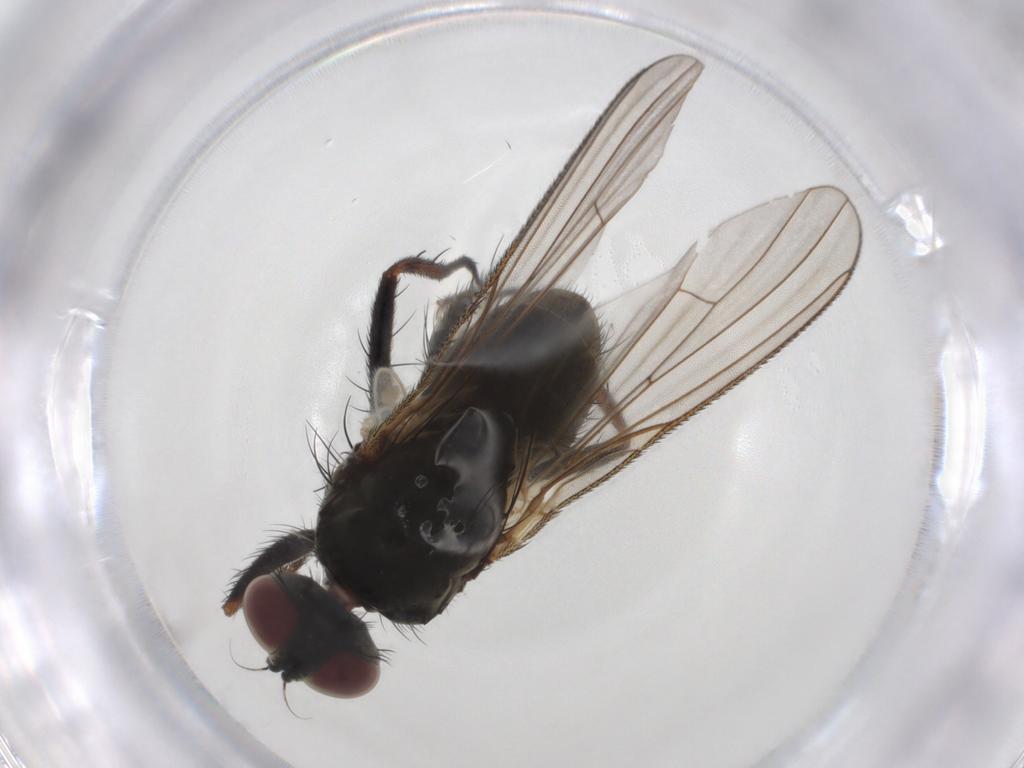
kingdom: Animalia
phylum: Arthropoda
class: Insecta
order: Diptera
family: Muscidae
